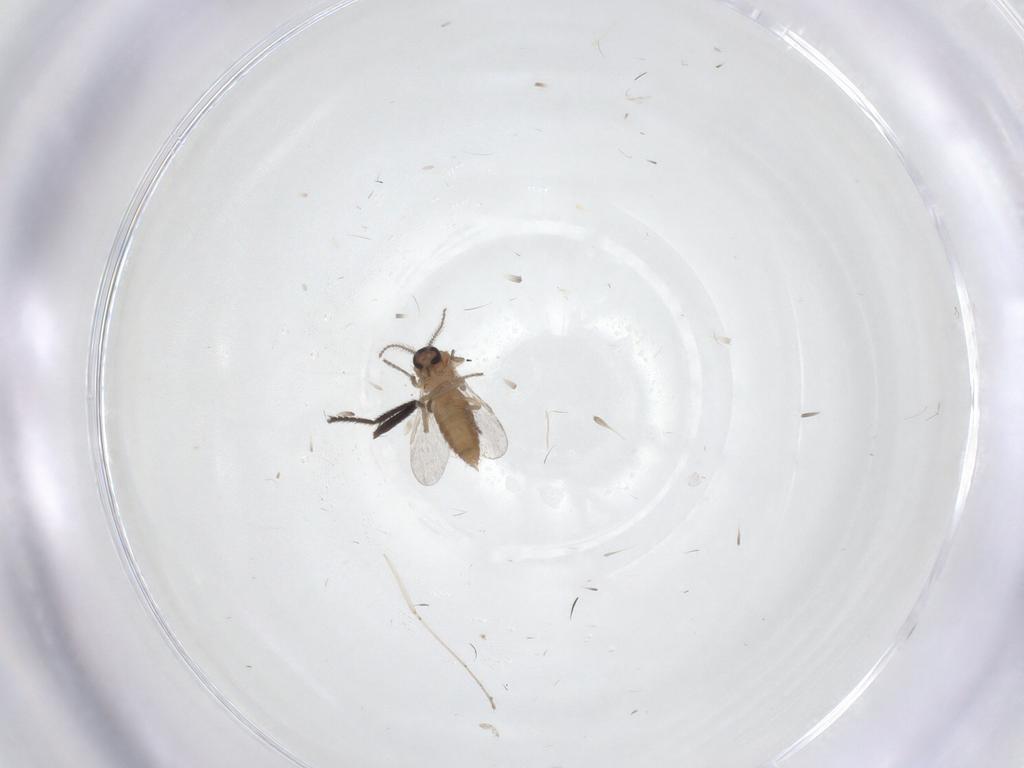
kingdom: Animalia
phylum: Arthropoda
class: Insecta
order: Diptera
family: Ceratopogonidae
